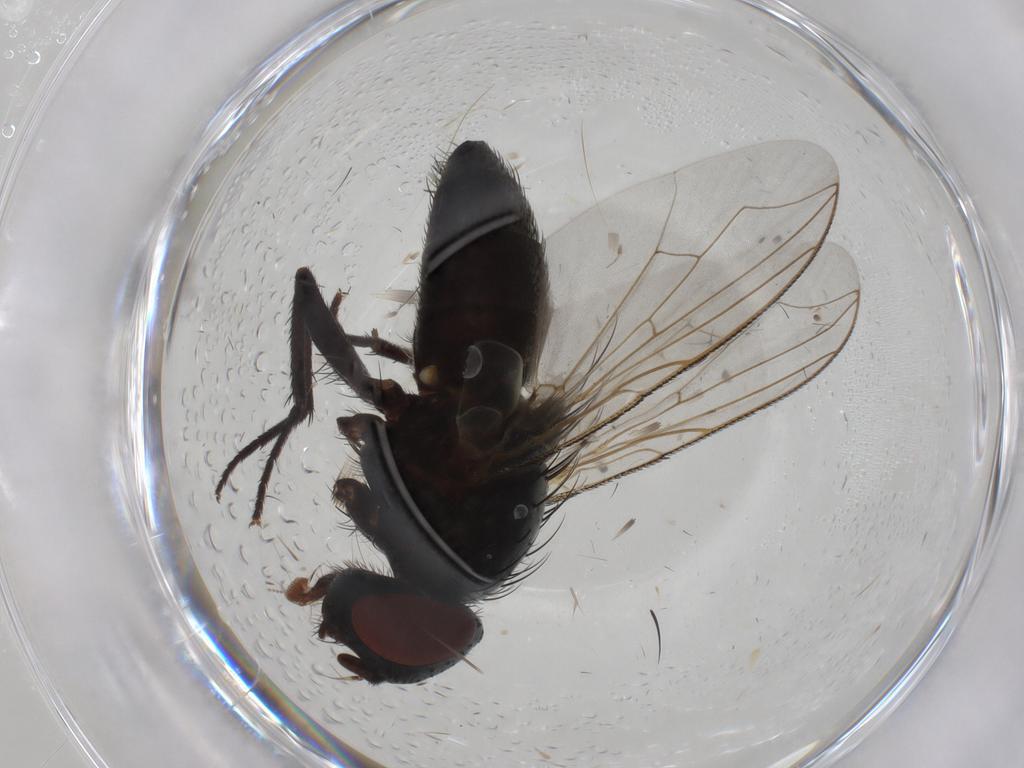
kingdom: Animalia
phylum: Arthropoda
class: Insecta
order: Diptera
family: Sarcophagidae
